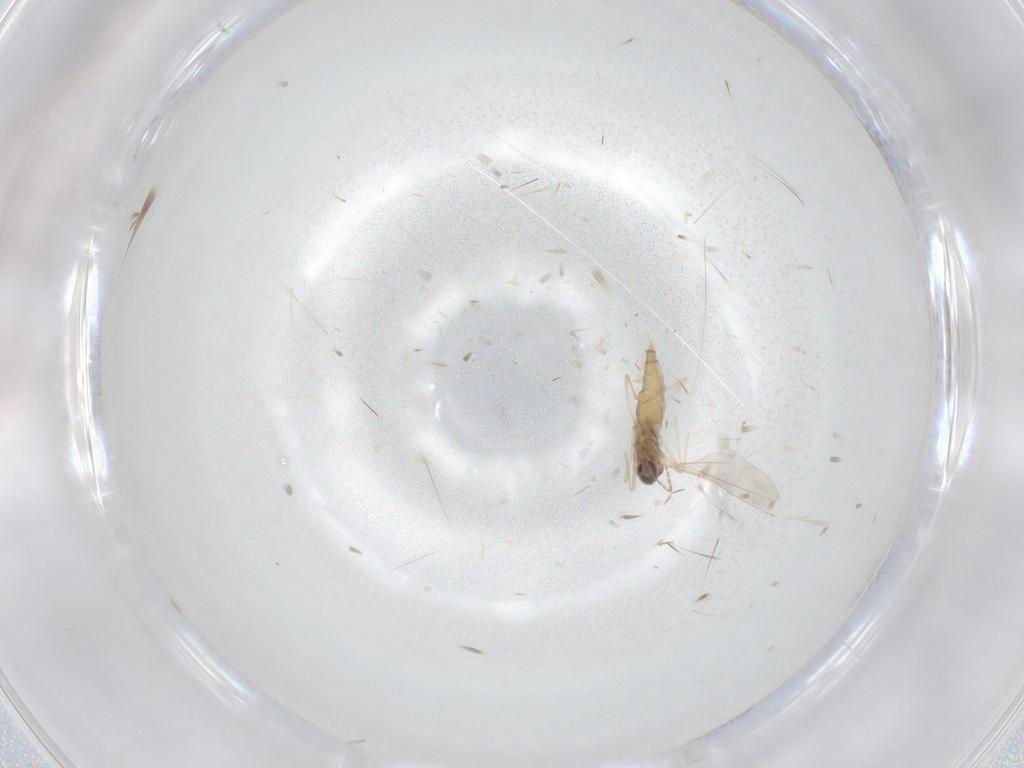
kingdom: Animalia
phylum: Arthropoda
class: Insecta
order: Diptera
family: Cecidomyiidae
